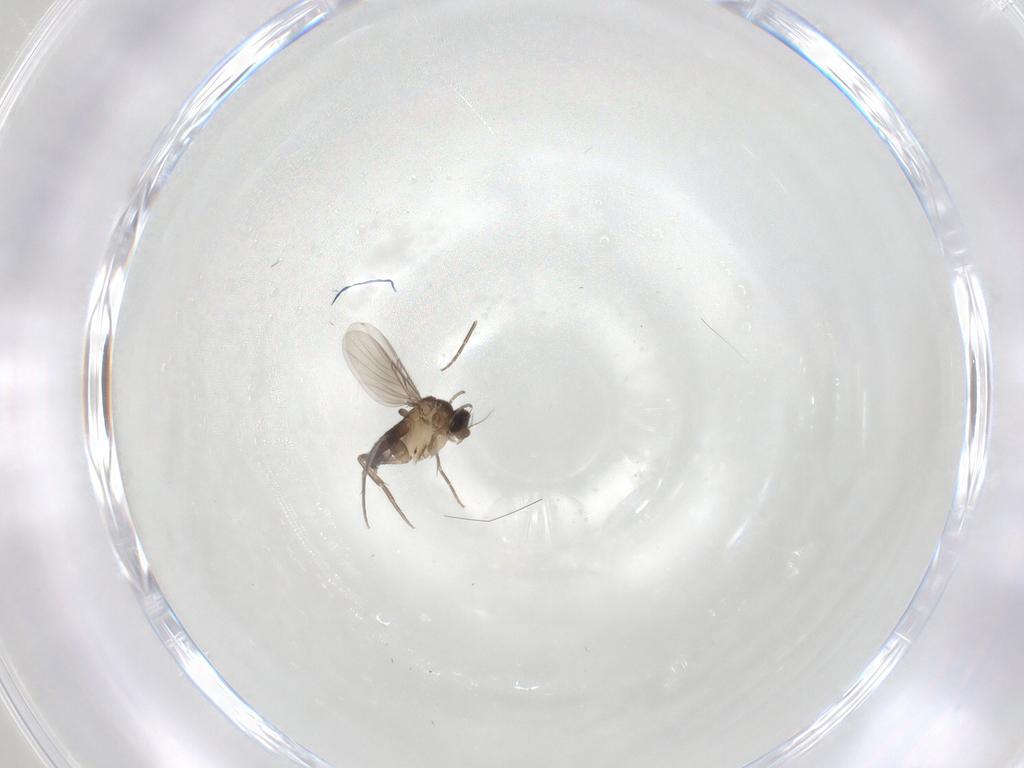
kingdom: Animalia
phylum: Arthropoda
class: Insecta
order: Diptera
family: Phoridae
